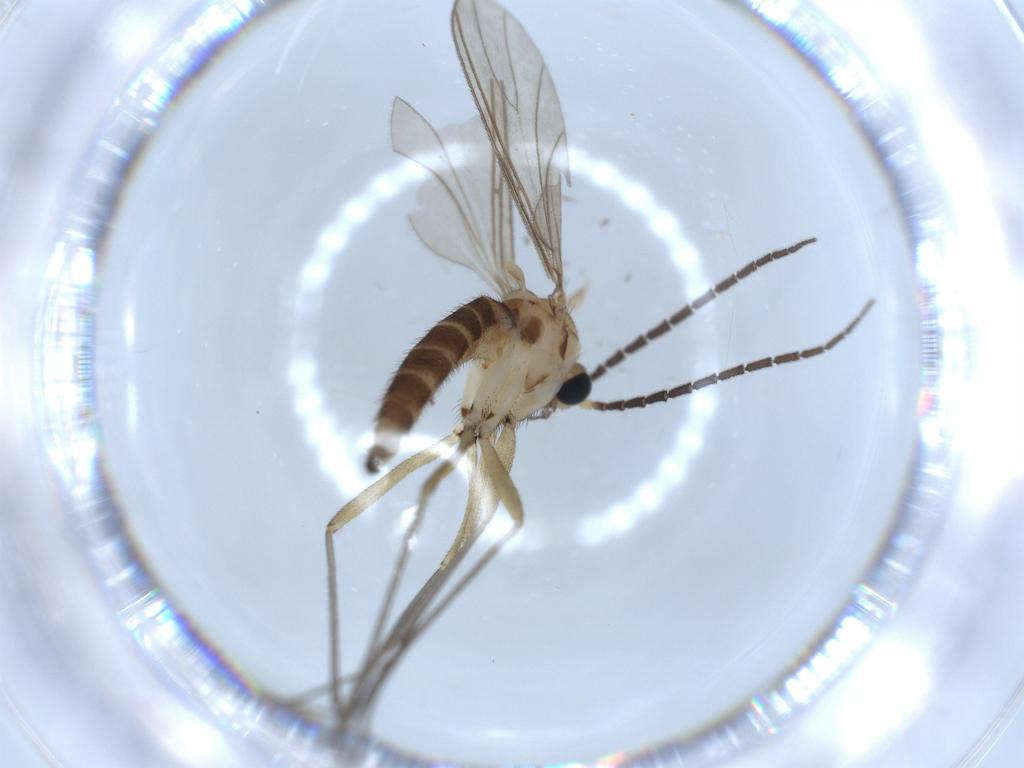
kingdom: Animalia
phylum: Arthropoda
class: Insecta
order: Diptera
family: Sciaridae
